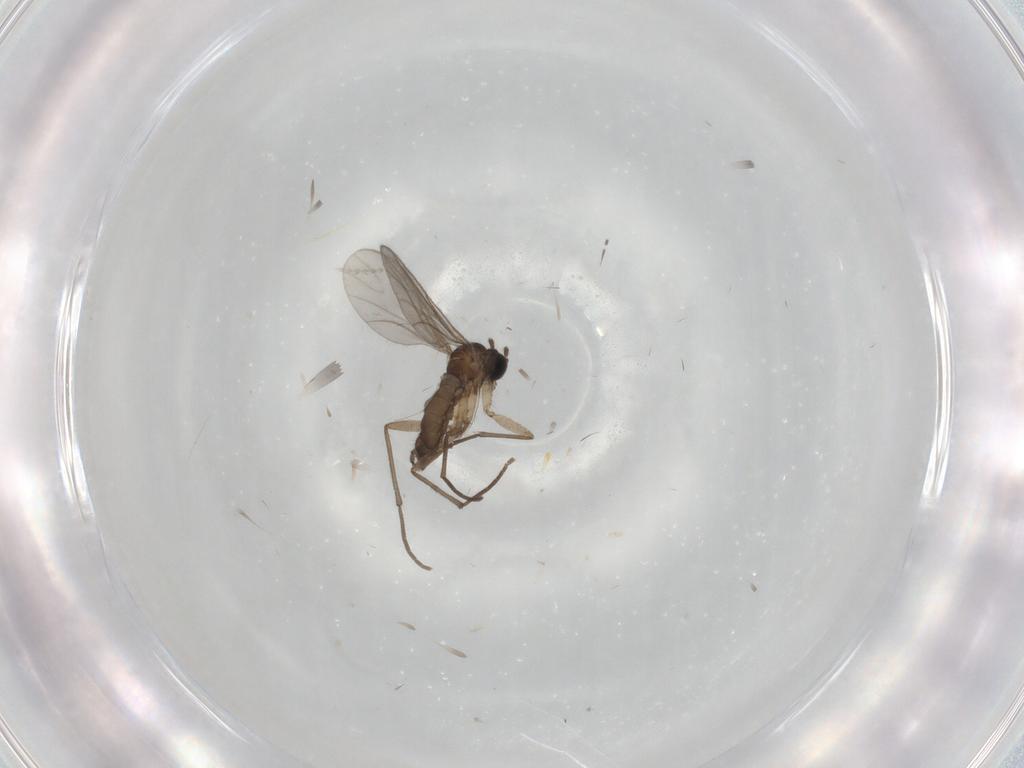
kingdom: Animalia
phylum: Arthropoda
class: Insecta
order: Diptera
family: Sciaridae
